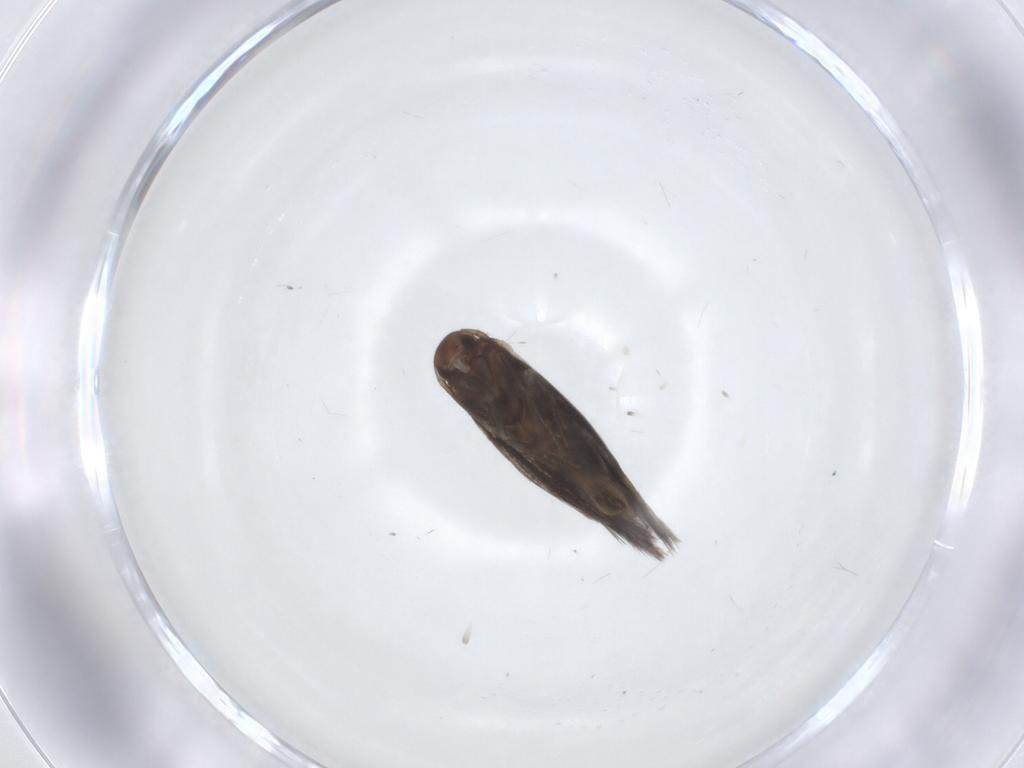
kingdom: Animalia
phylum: Arthropoda
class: Insecta
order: Lepidoptera
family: Elachistidae
